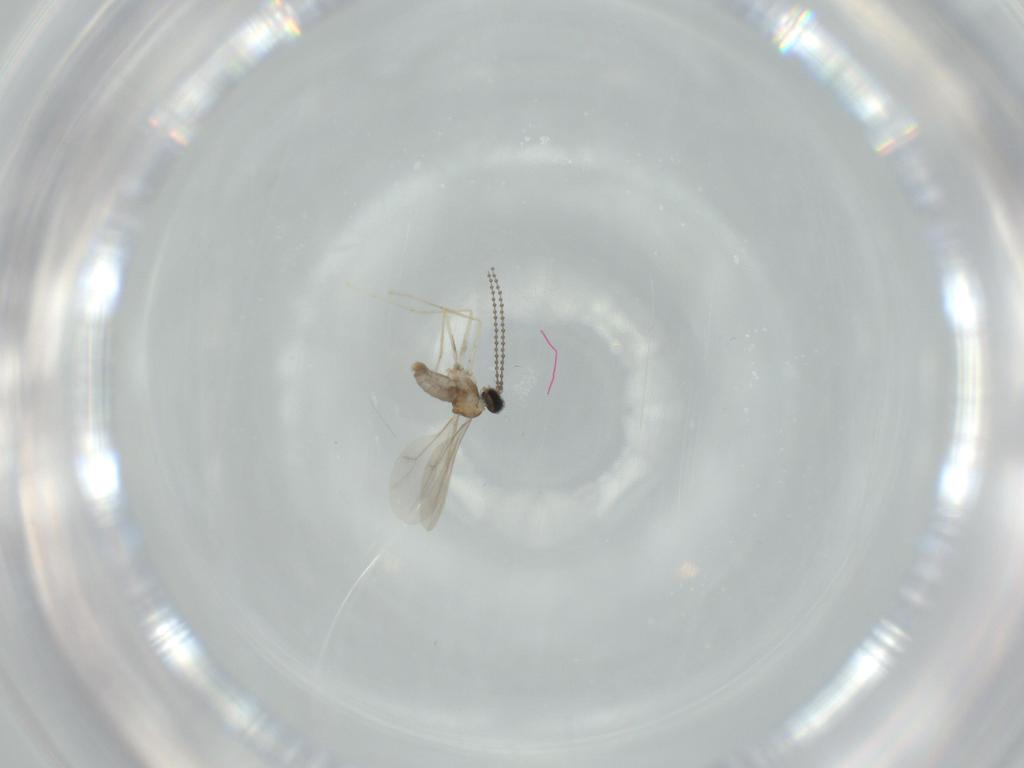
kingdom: Animalia
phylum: Arthropoda
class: Insecta
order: Diptera
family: Cecidomyiidae
